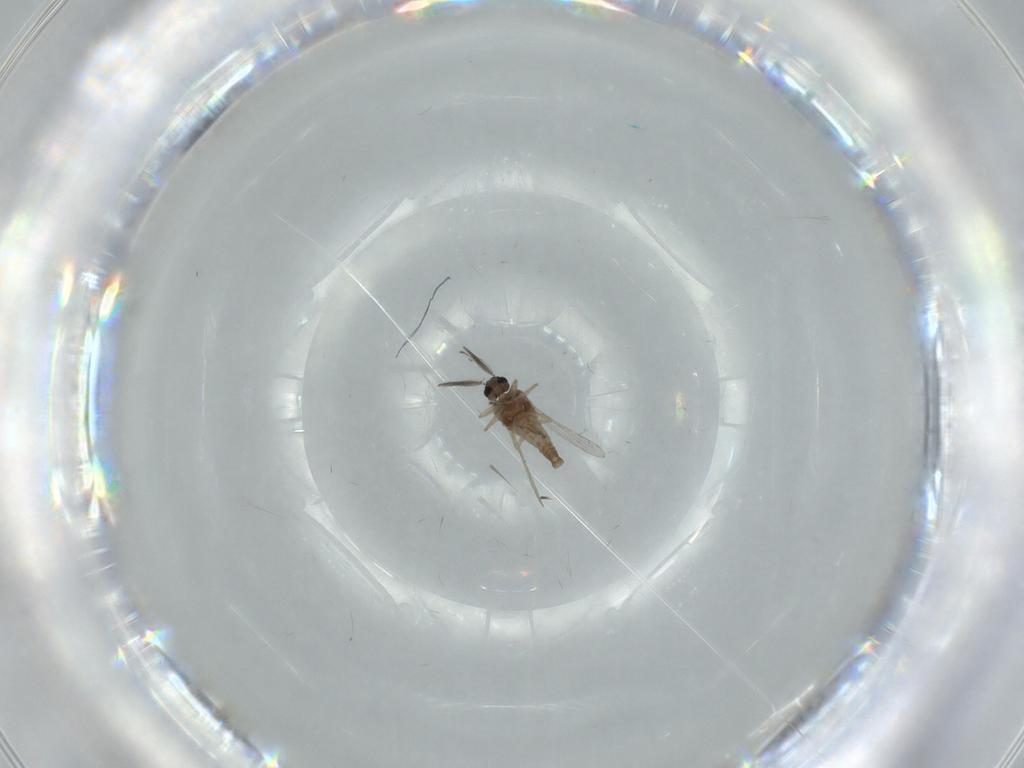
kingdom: Animalia
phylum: Arthropoda
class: Insecta
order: Diptera
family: Ceratopogonidae
